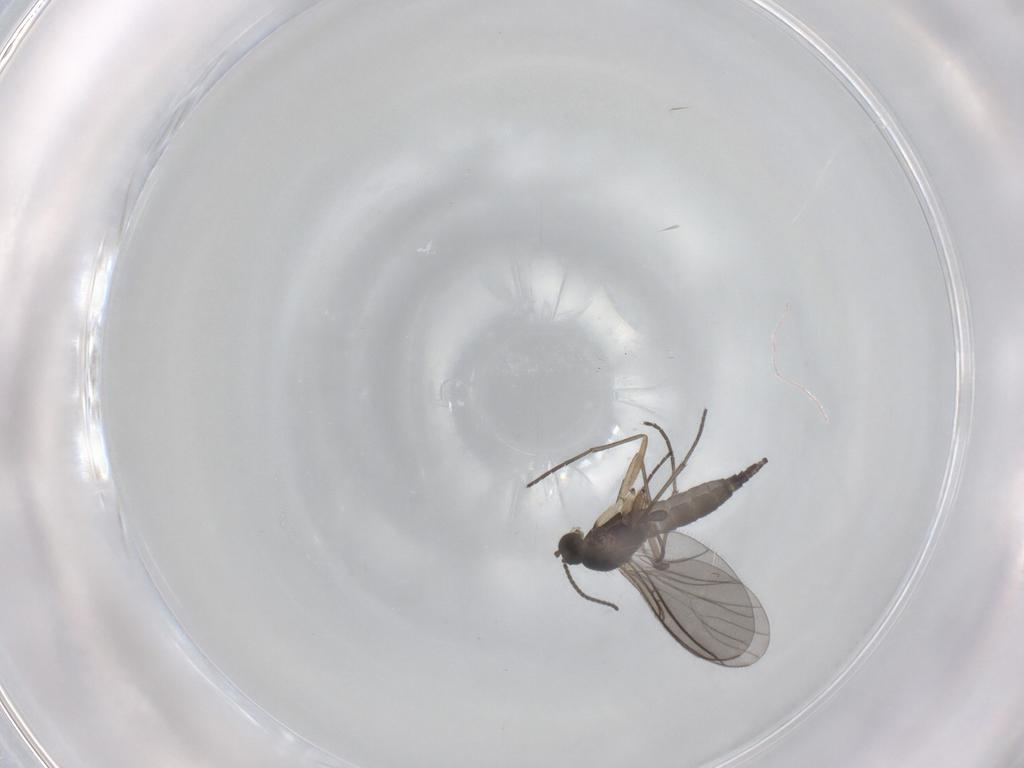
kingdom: Animalia
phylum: Arthropoda
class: Insecta
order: Diptera
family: Sciaridae
